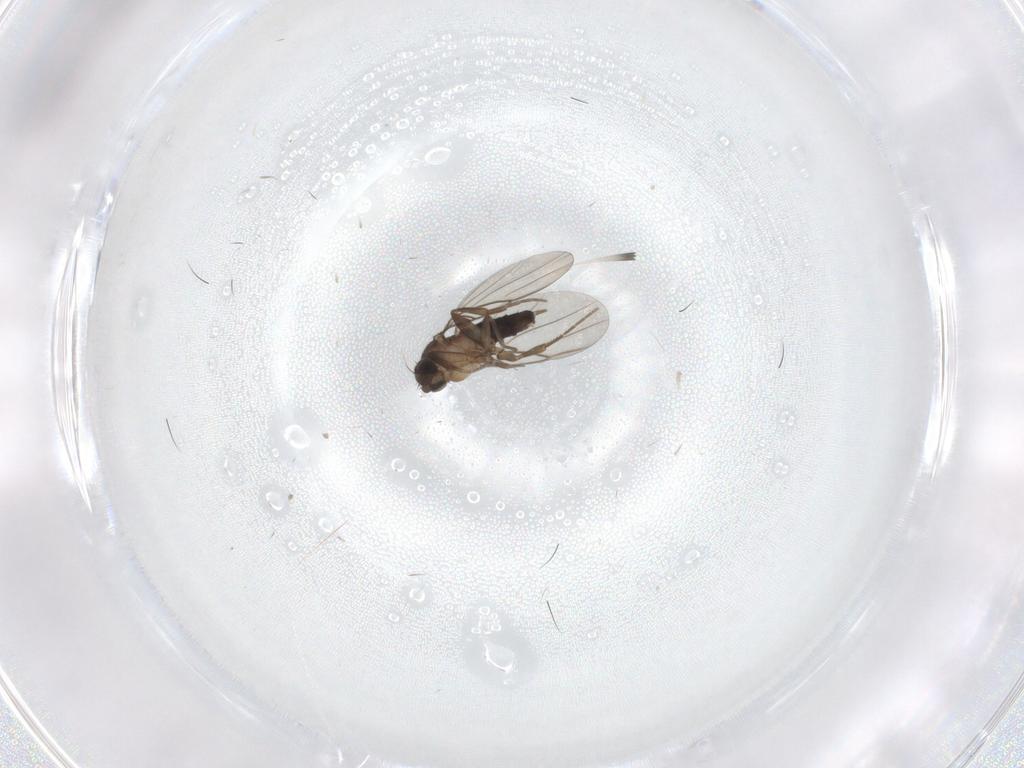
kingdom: Animalia
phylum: Arthropoda
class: Insecta
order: Diptera
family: Phoridae
